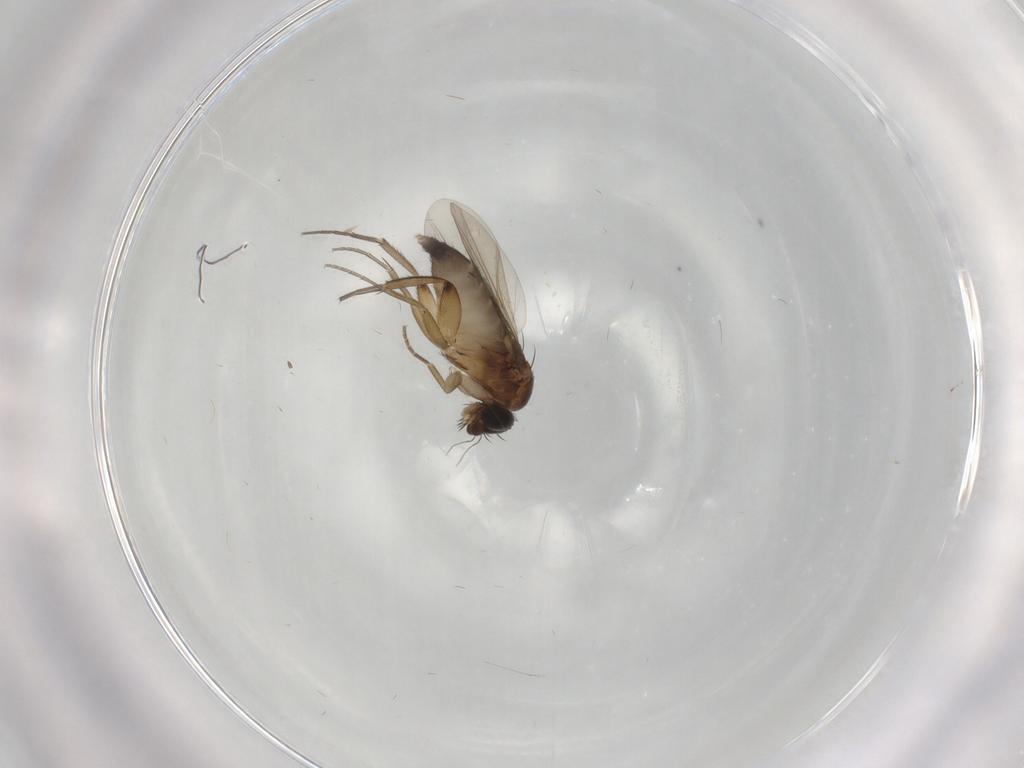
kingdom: Animalia
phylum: Arthropoda
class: Insecta
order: Diptera
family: Phoridae
